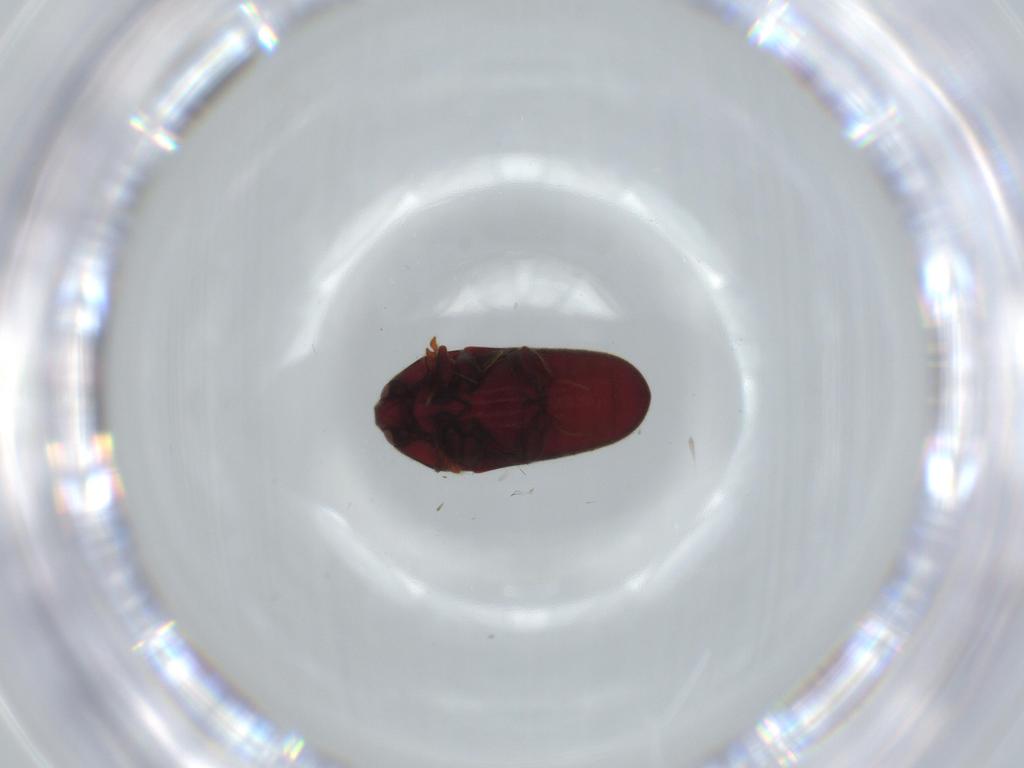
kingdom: Animalia
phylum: Arthropoda
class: Insecta
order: Coleoptera
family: Throscidae
